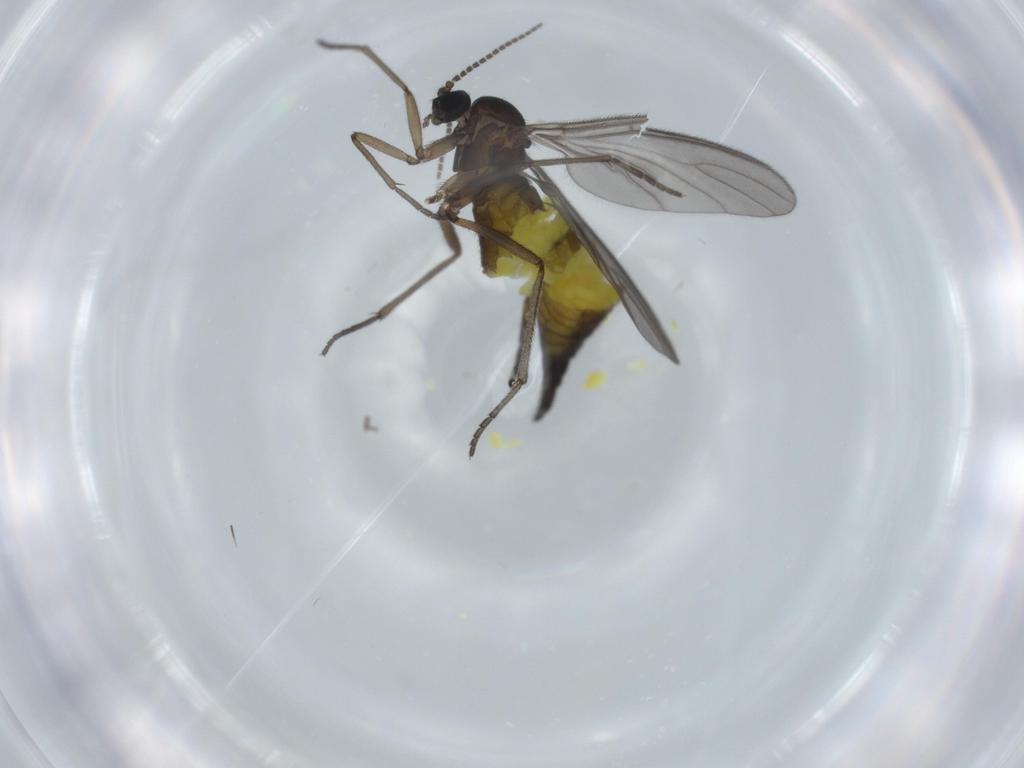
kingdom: Animalia
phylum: Arthropoda
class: Insecta
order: Diptera
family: Sciaridae
